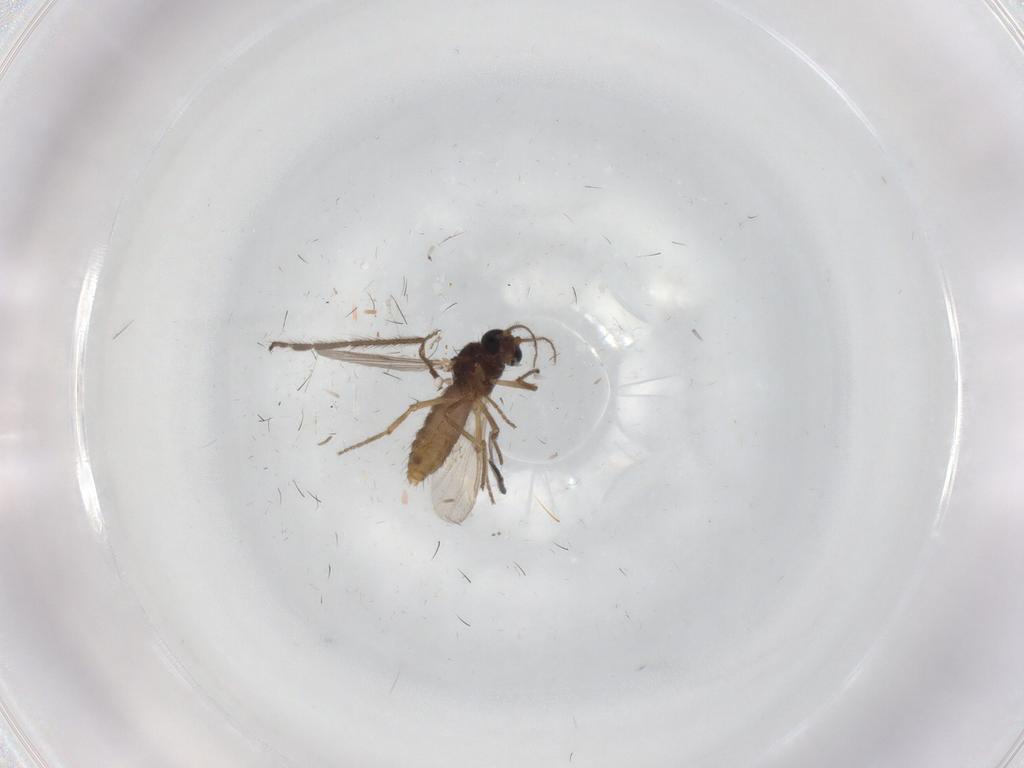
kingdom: Animalia
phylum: Arthropoda
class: Insecta
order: Diptera
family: Ceratopogonidae
